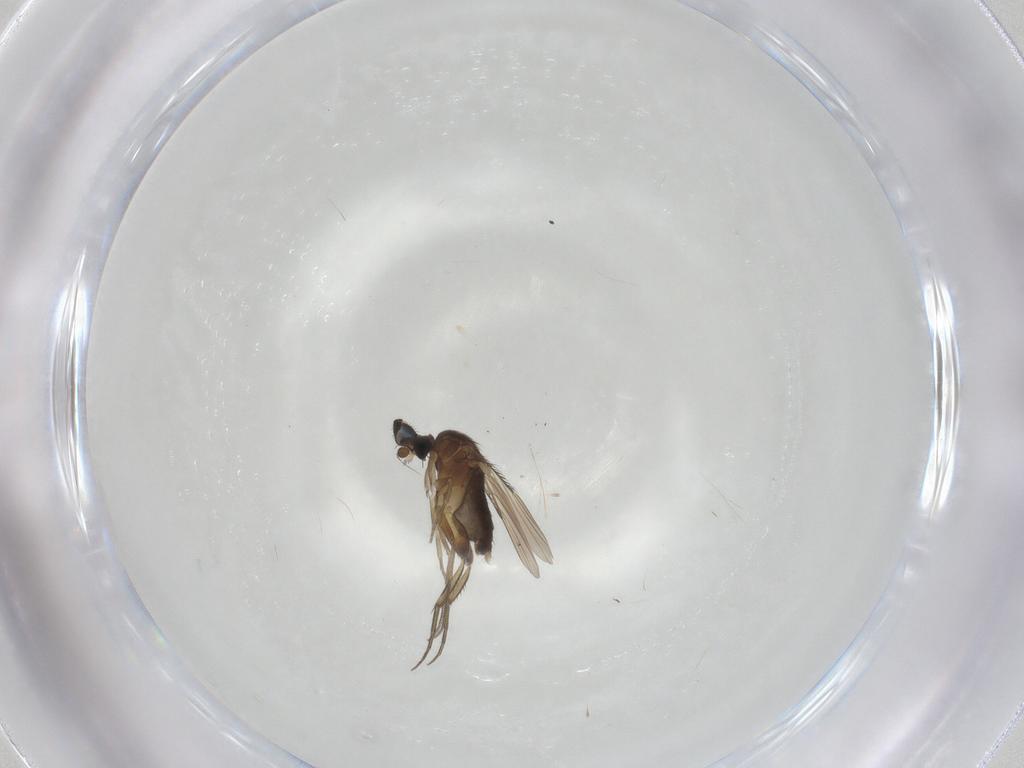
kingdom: Animalia
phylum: Arthropoda
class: Insecta
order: Diptera
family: Phoridae
